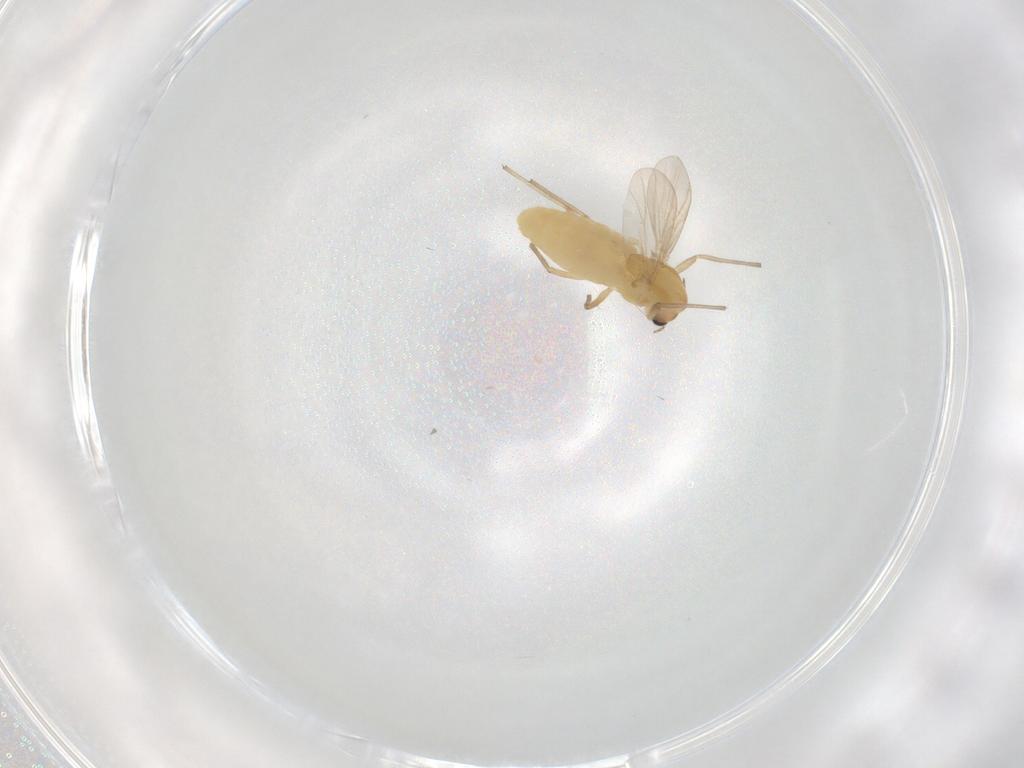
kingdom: Animalia
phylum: Arthropoda
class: Insecta
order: Diptera
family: Chironomidae
